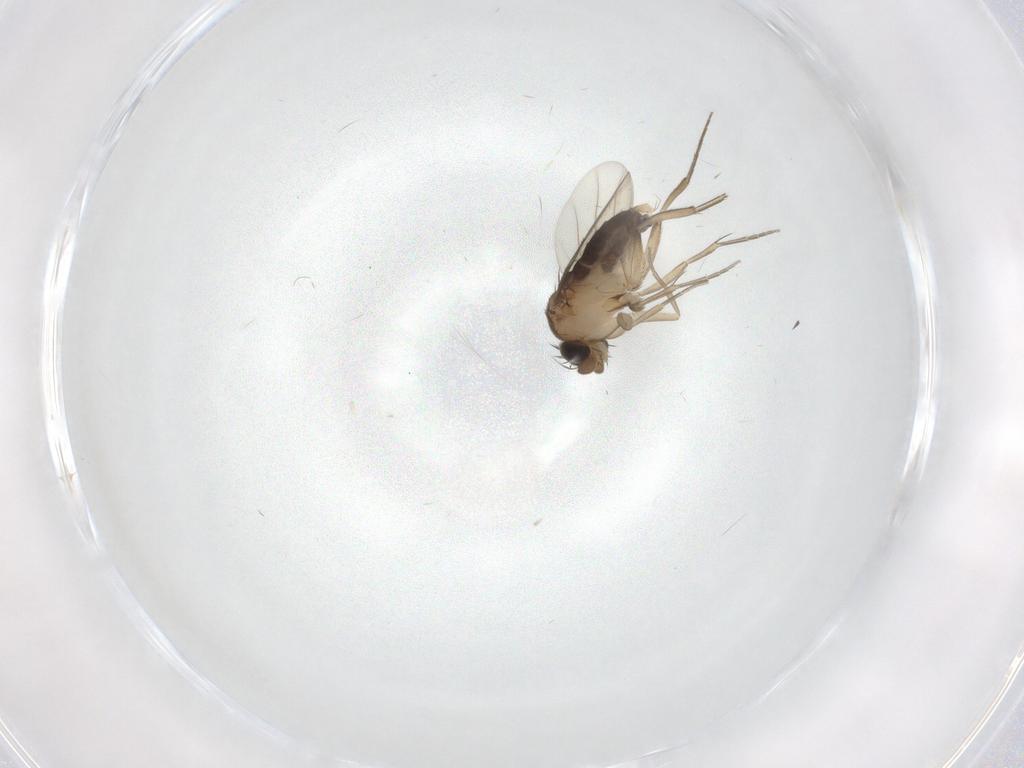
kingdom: Animalia
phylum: Arthropoda
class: Insecta
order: Diptera
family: Phoridae
